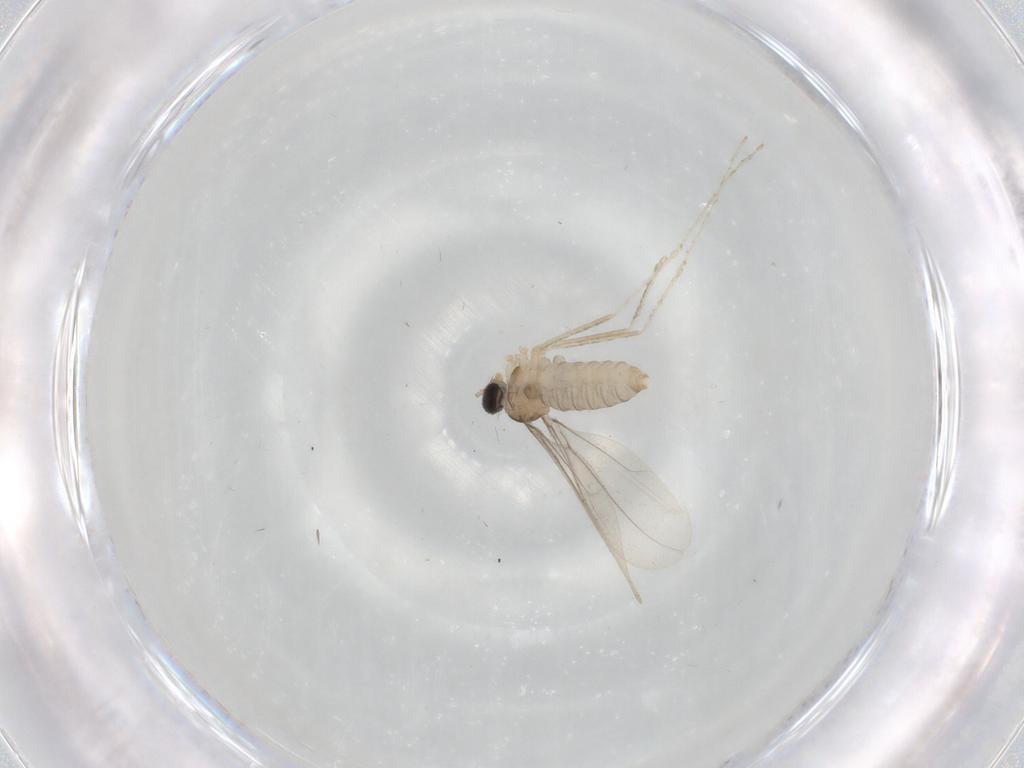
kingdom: Animalia
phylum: Arthropoda
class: Insecta
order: Diptera
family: Cecidomyiidae
